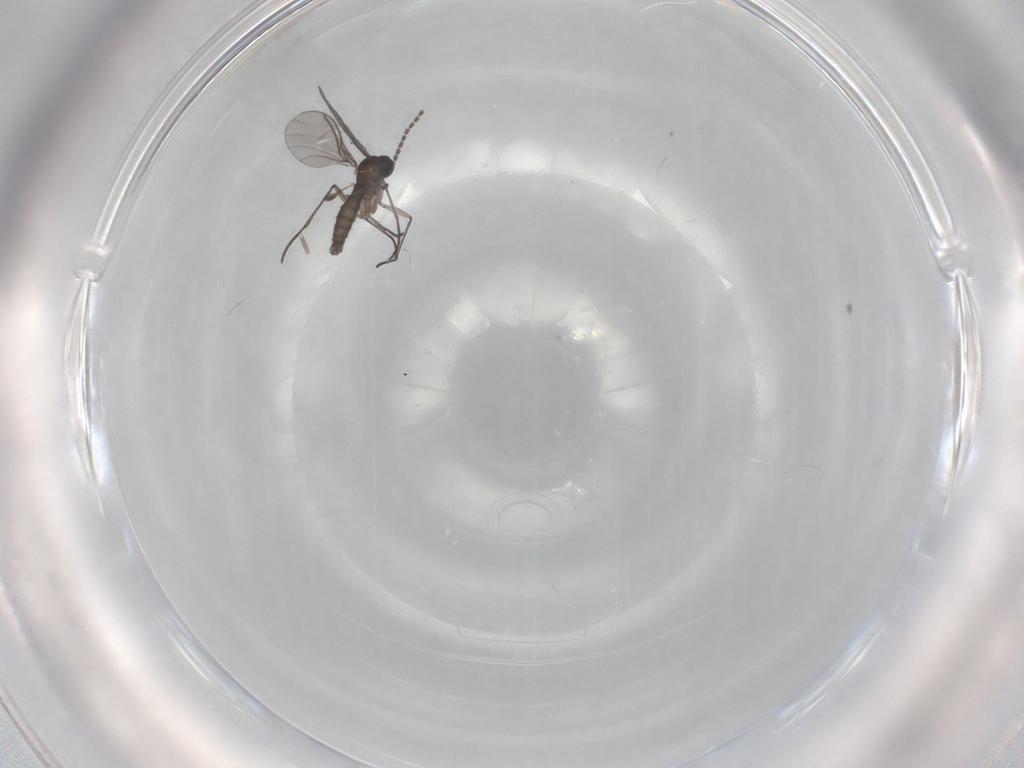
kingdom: Animalia
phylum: Arthropoda
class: Insecta
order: Diptera
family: Sciaridae
